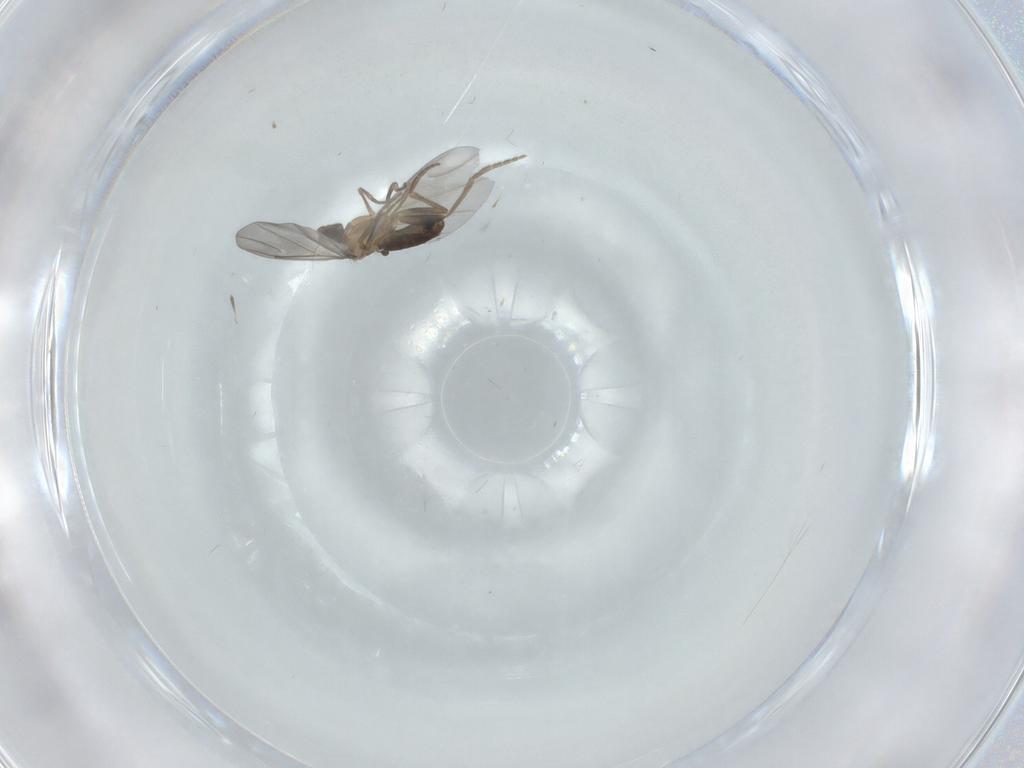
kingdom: Animalia
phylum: Arthropoda
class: Insecta
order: Diptera
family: Phoridae
